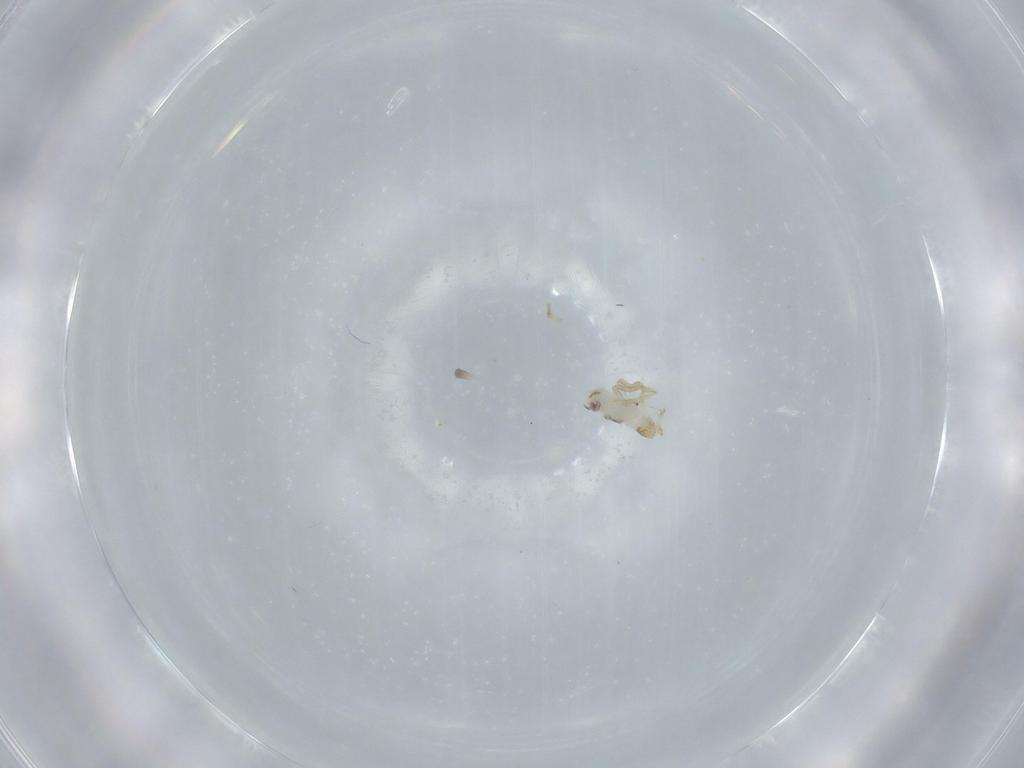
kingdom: Animalia
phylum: Arthropoda
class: Insecta
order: Hemiptera
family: Delphacidae
